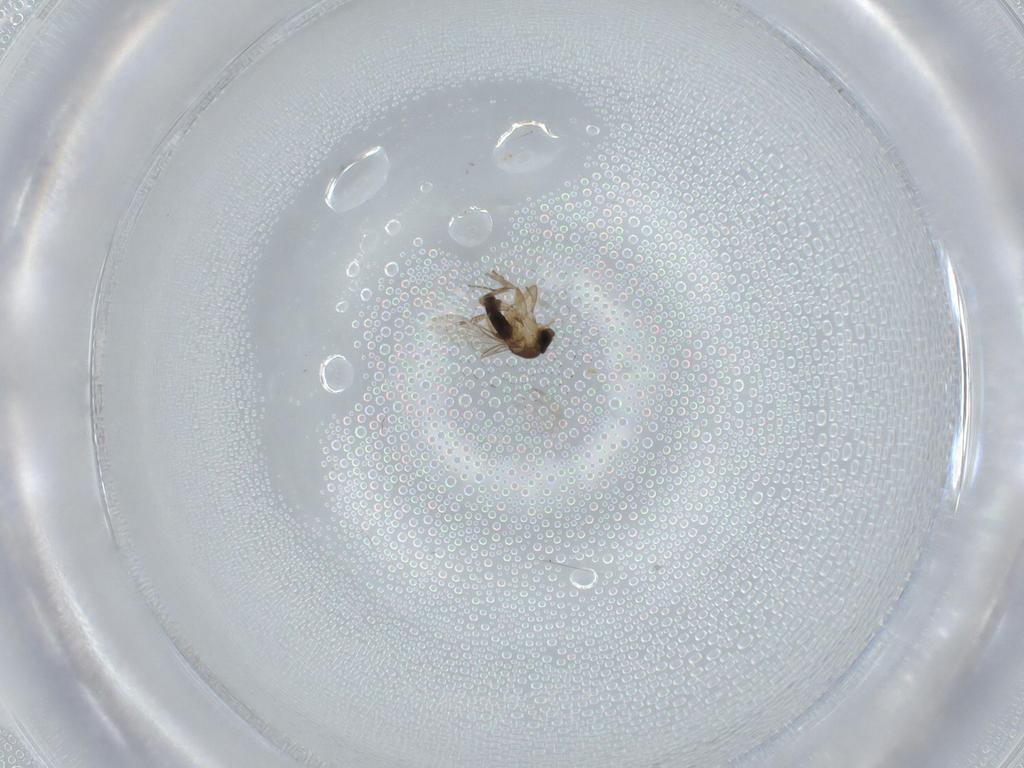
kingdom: Animalia
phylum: Arthropoda
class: Insecta
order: Diptera
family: Phoridae
